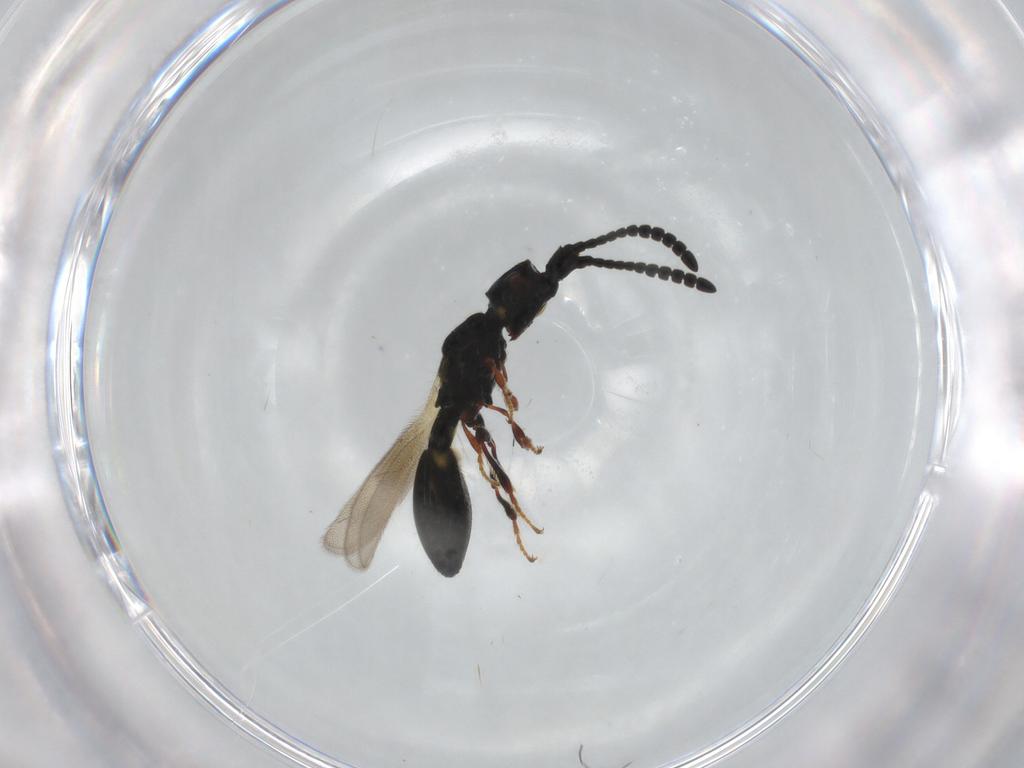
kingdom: Animalia
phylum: Arthropoda
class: Insecta
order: Hymenoptera
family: Diapriidae
